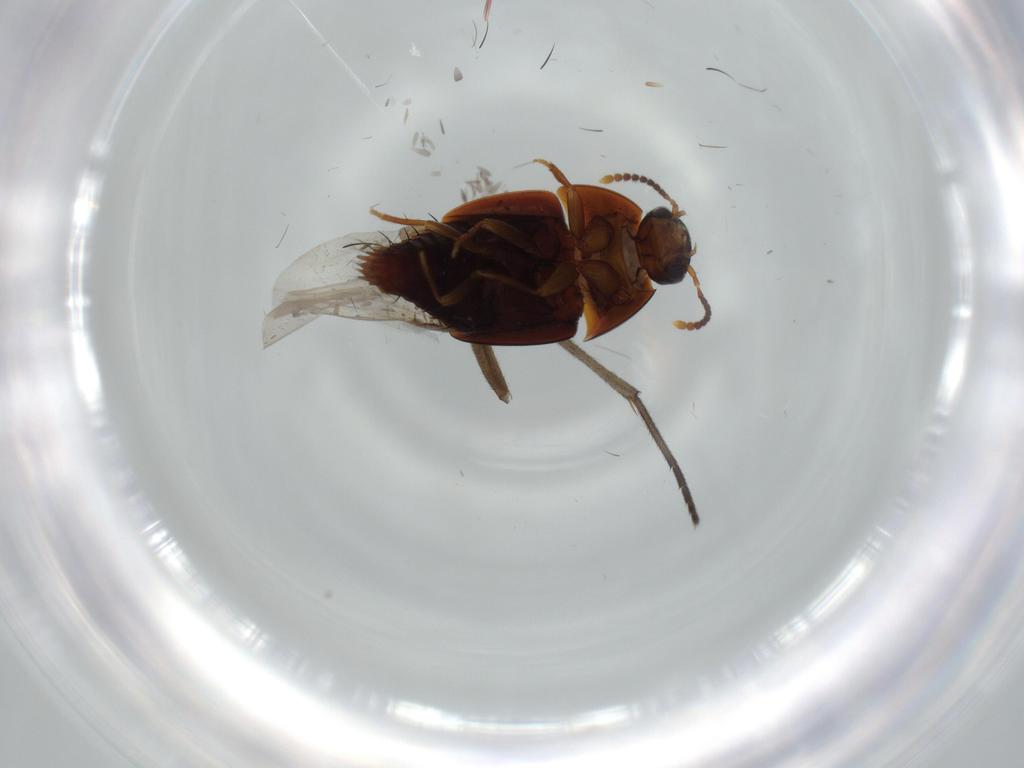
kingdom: Animalia
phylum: Arthropoda
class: Insecta
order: Coleoptera
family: Staphylinidae
